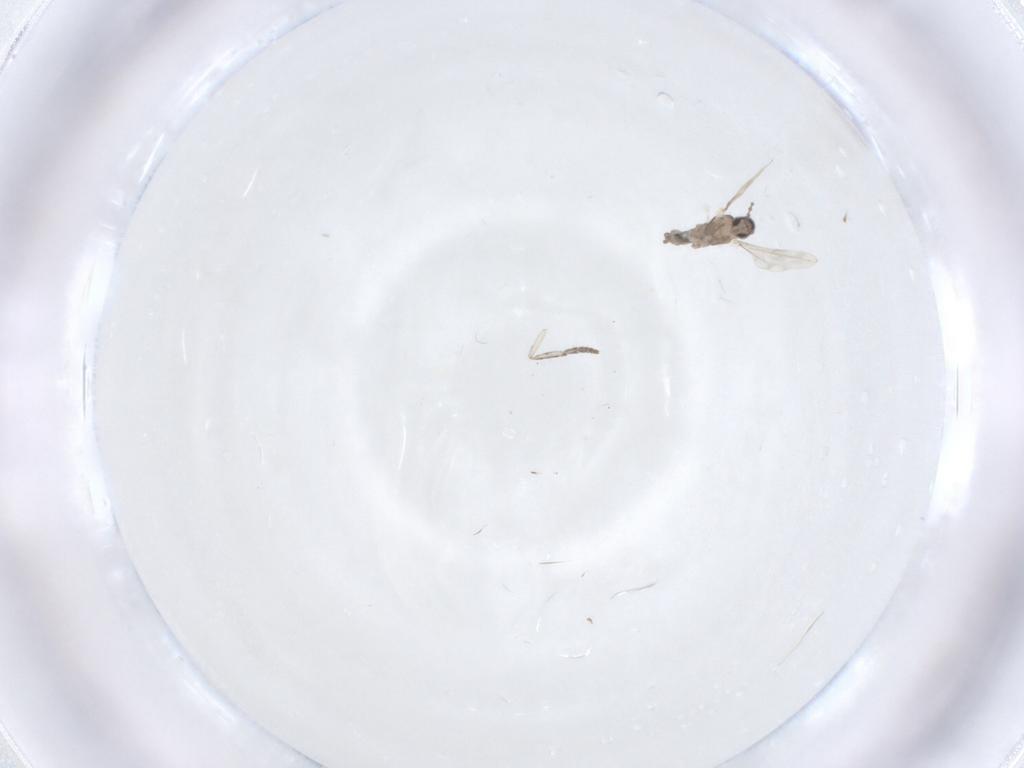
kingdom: Animalia
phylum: Arthropoda
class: Insecta
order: Diptera
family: Cecidomyiidae
